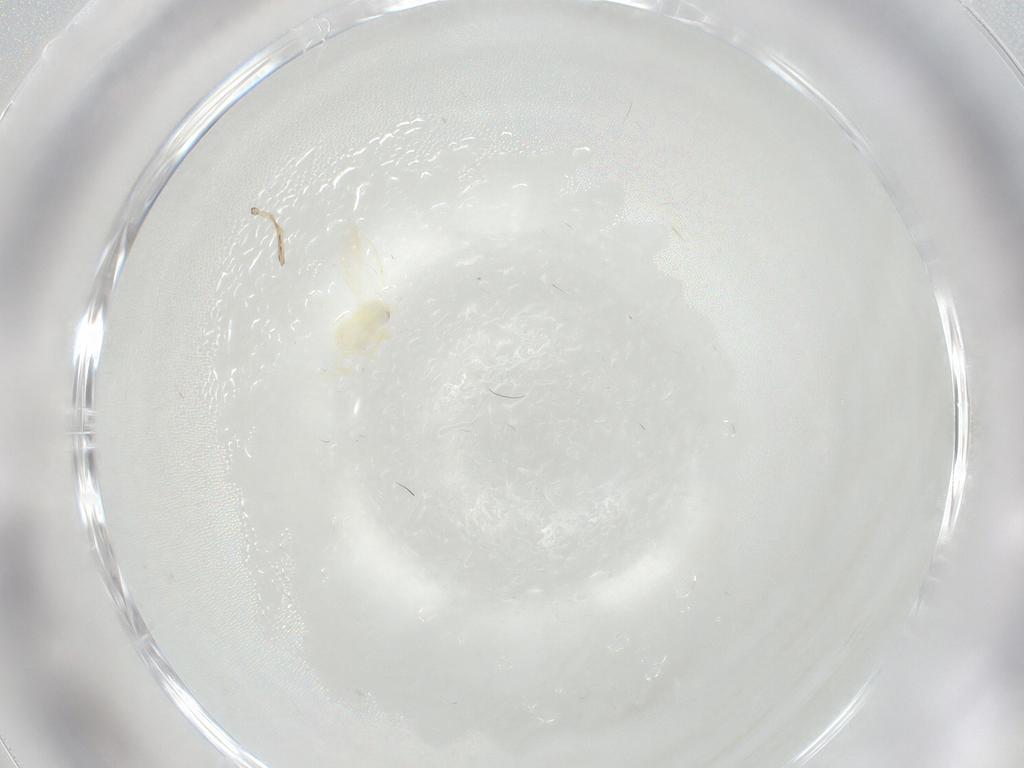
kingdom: Animalia
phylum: Arthropoda
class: Insecta
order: Hemiptera
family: Aleyrodidae
